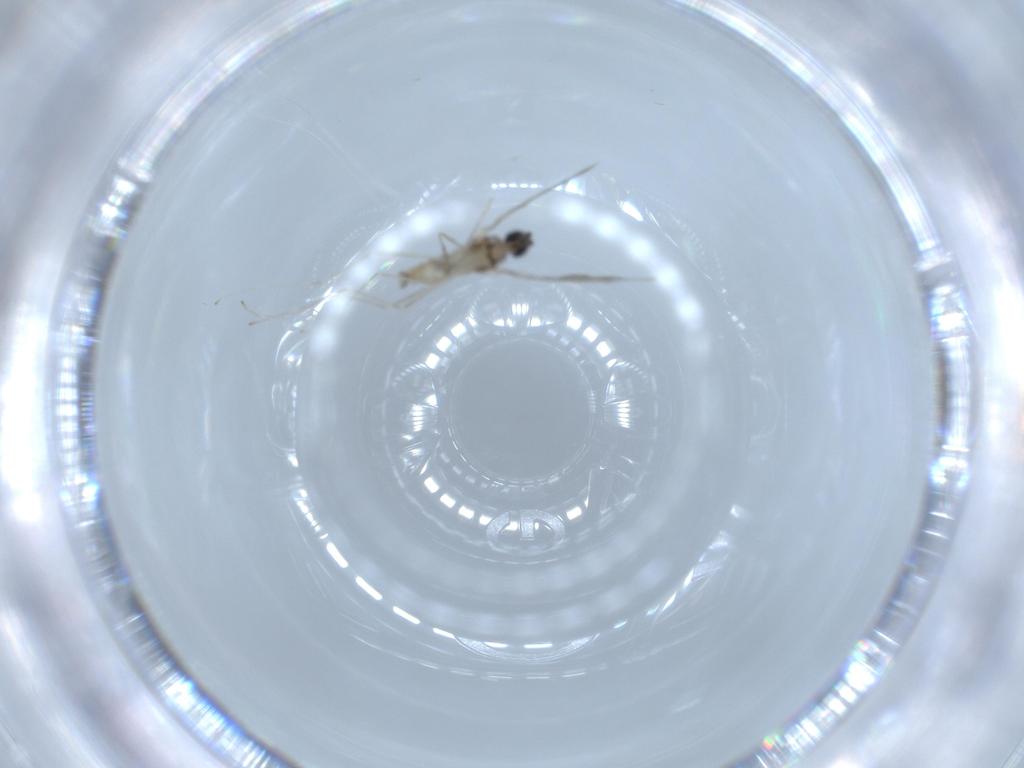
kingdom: Animalia
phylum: Arthropoda
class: Insecta
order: Diptera
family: Cecidomyiidae
